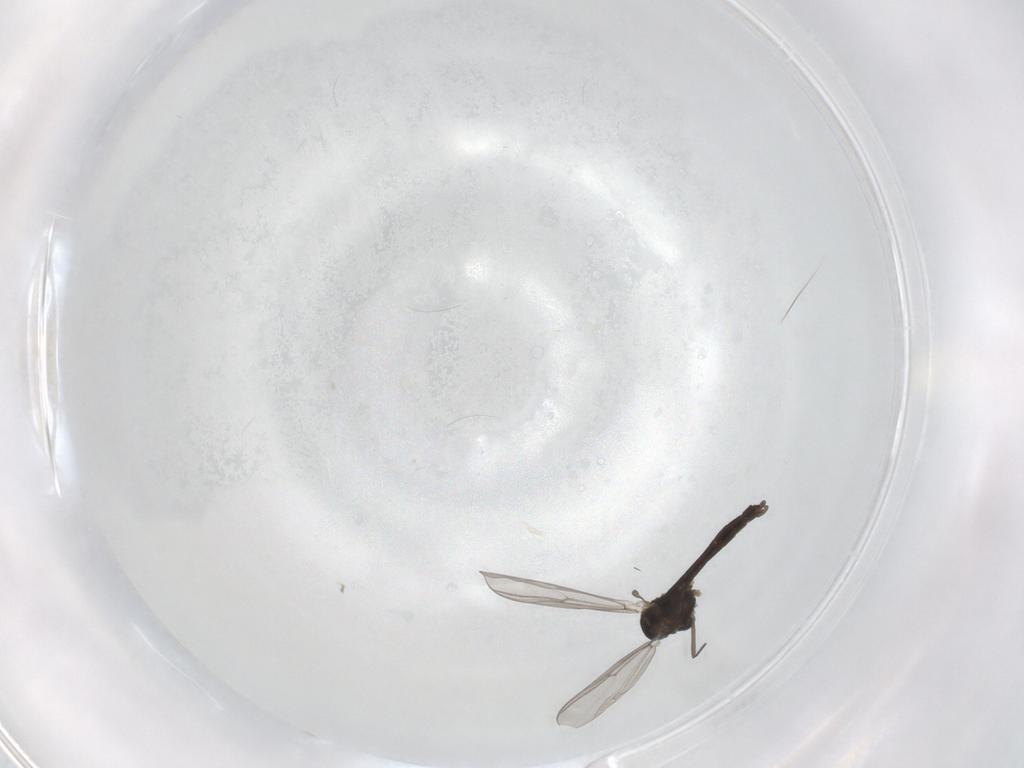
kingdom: Animalia
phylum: Arthropoda
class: Insecta
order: Diptera
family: Chironomidae
